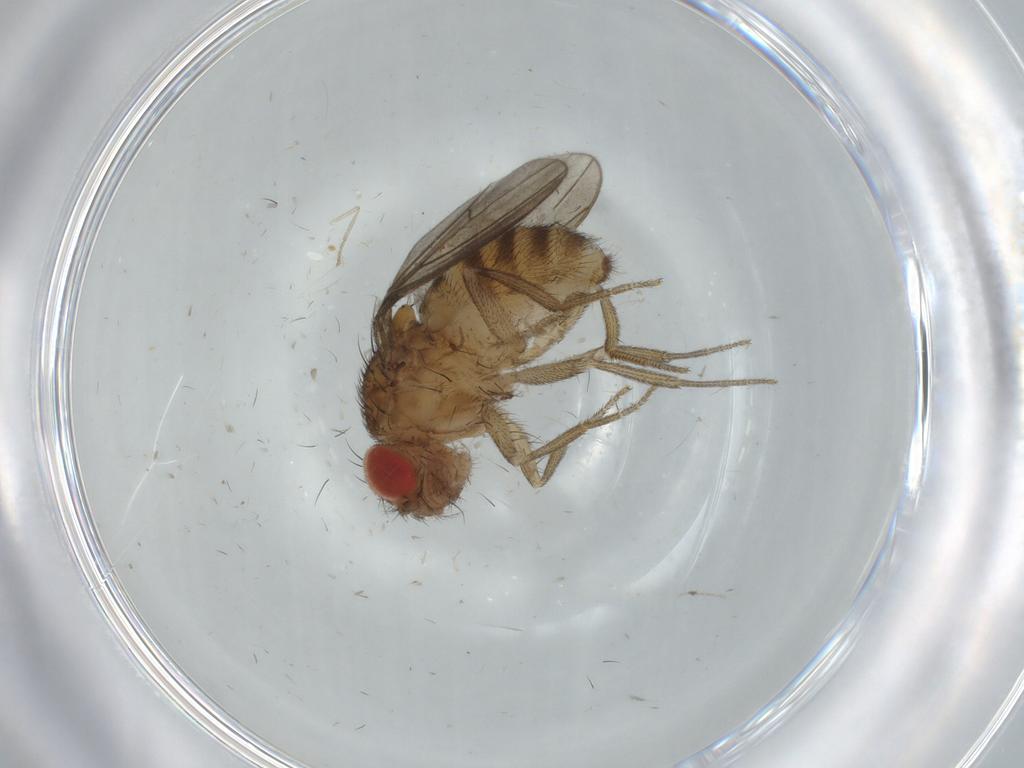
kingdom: Animalia
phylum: Arthropoda
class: Insecta
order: Diptera
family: Drosophilidae
